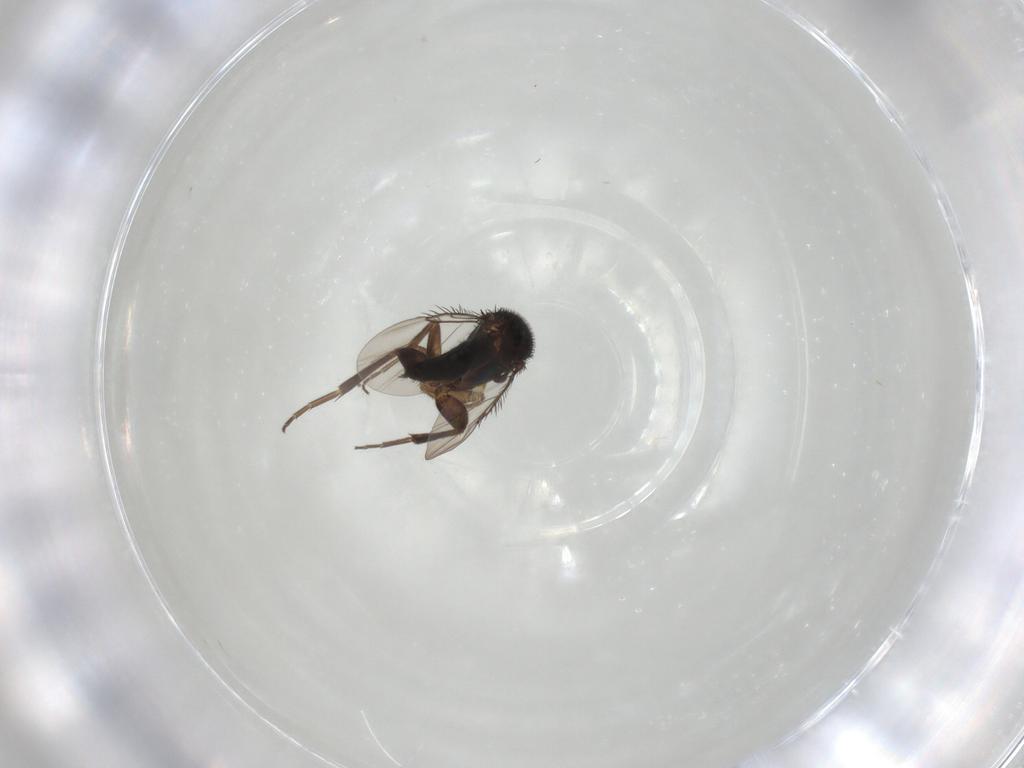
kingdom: Animalia
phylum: Arthropoda
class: Insecta
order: Diptera
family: Phoridae
